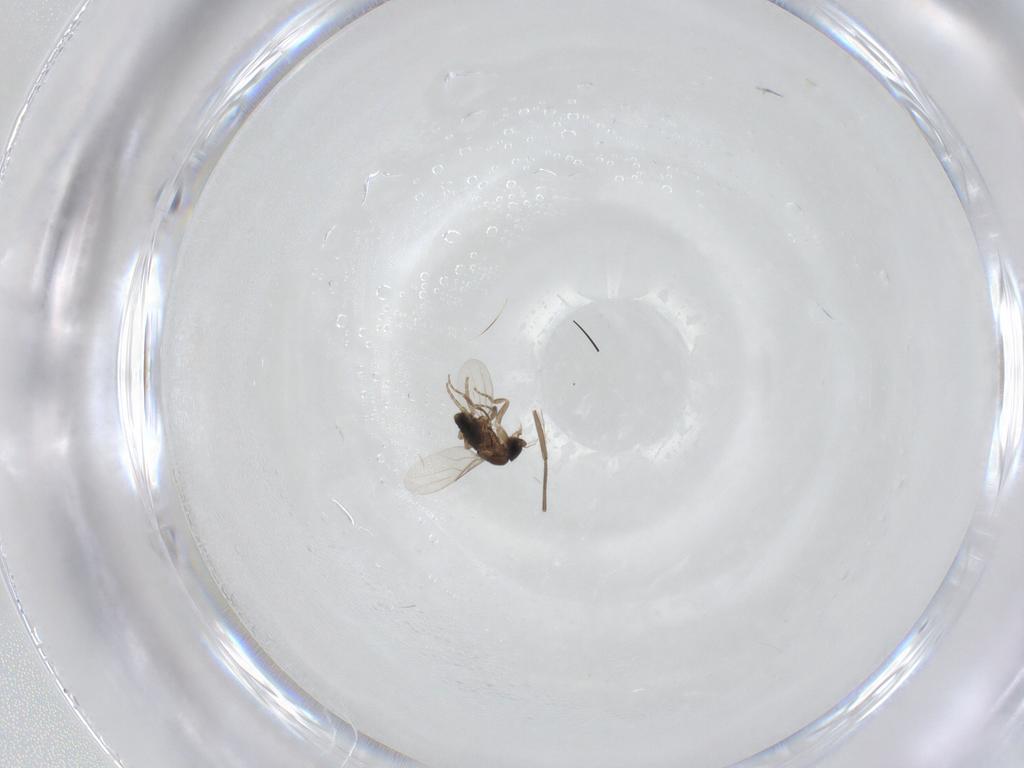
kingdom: Animalia
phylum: Arthropoda
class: Insecta
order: Diptera
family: Phoridae
